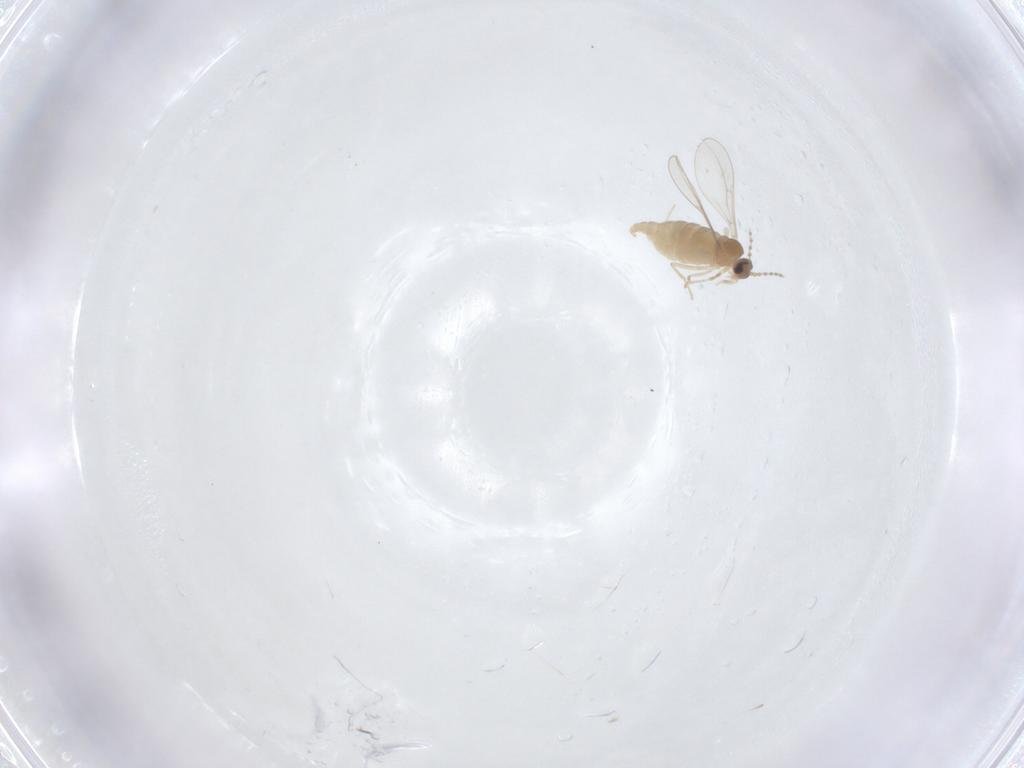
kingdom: Animalia
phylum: Arthropoda
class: Insecta
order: Diptera
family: Cecidomyiidae
